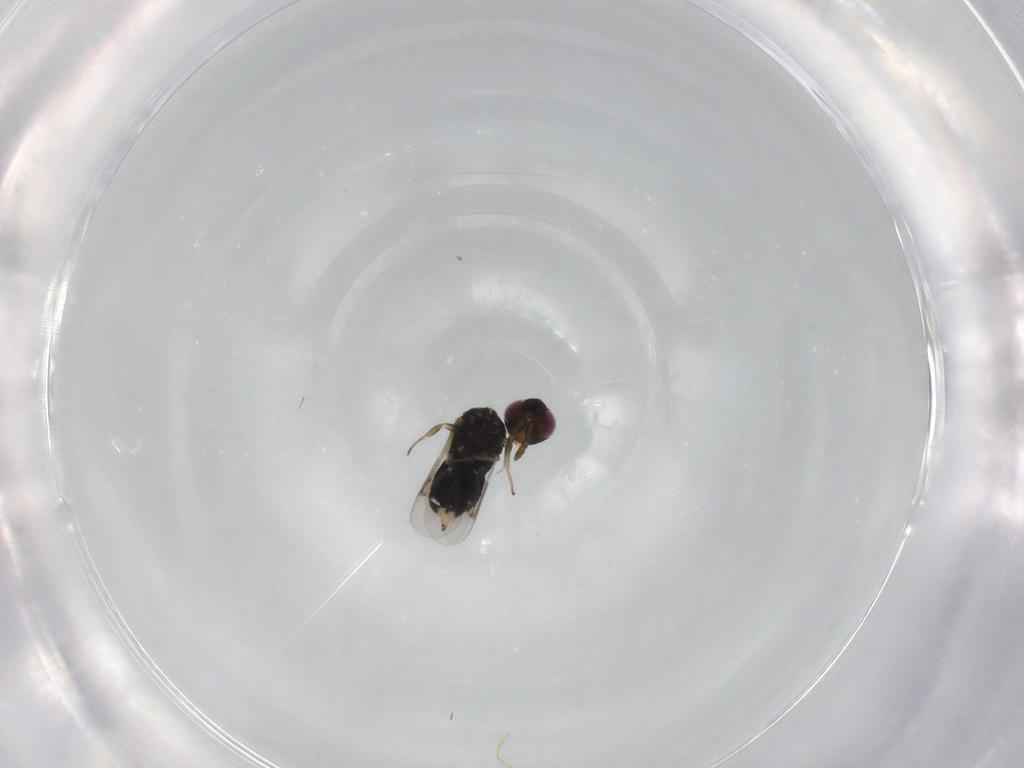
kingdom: Animalia
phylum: Arthropoda
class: Insecta
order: Hymenoptera
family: Aphelinidae
